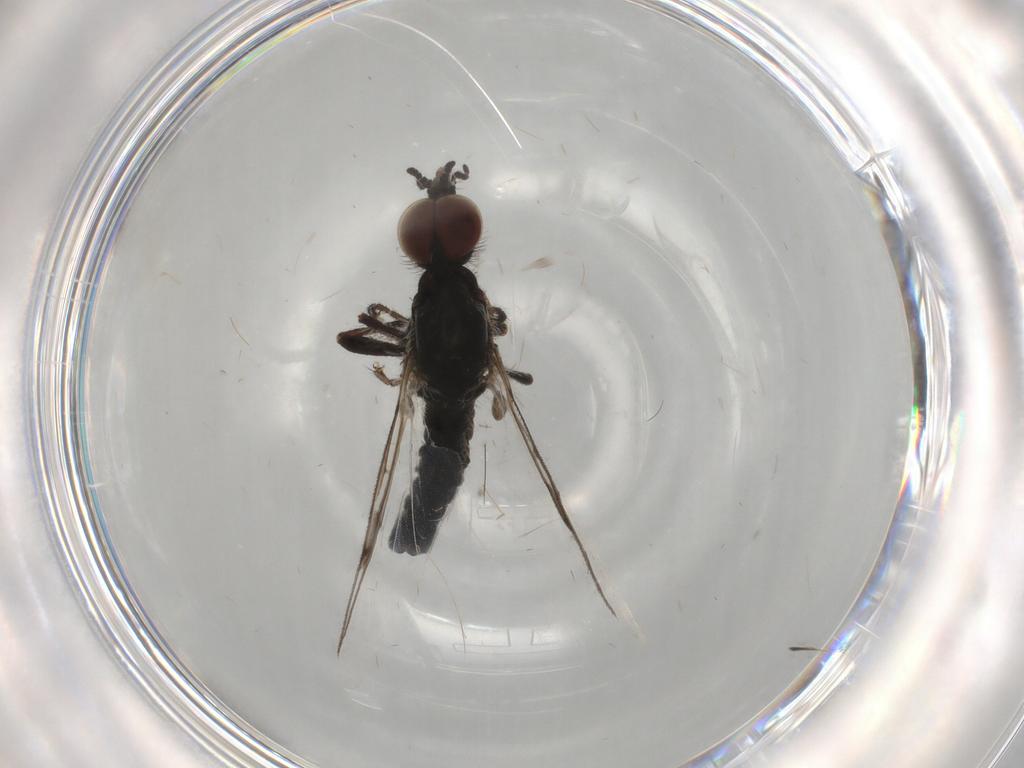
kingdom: Animalia
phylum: Arthropoda
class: Insecta
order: Diptera
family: Bibionidae
